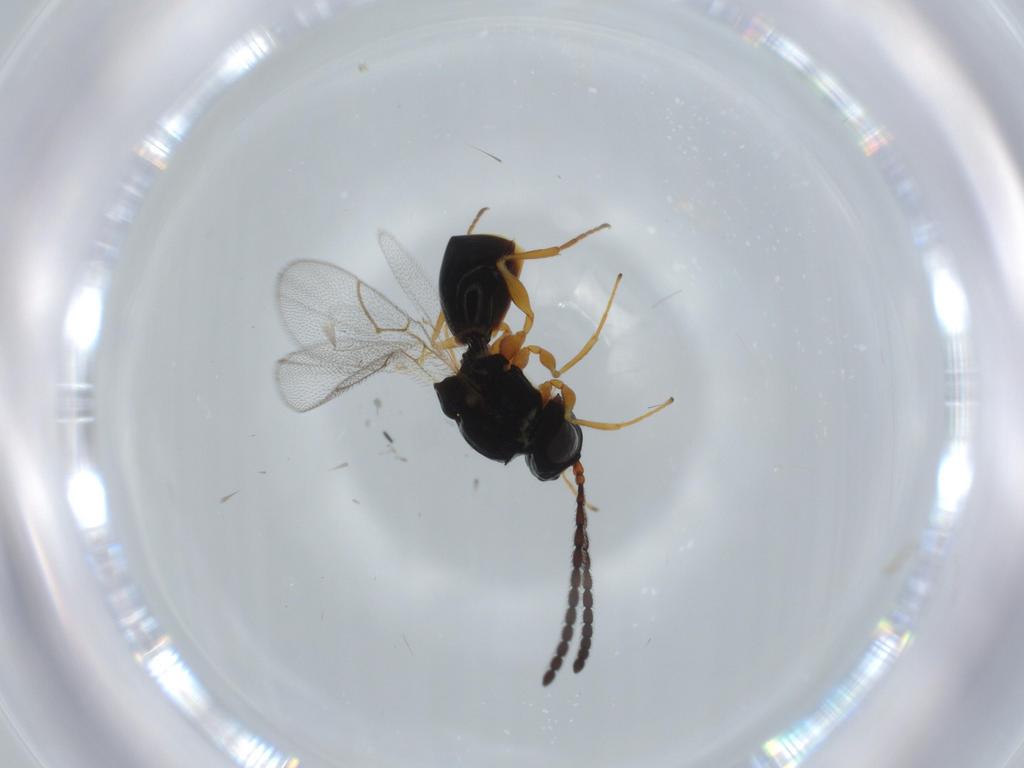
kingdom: Animalia
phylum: Arthropoda
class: Insecta
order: Hymenoptera
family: Figitidae
